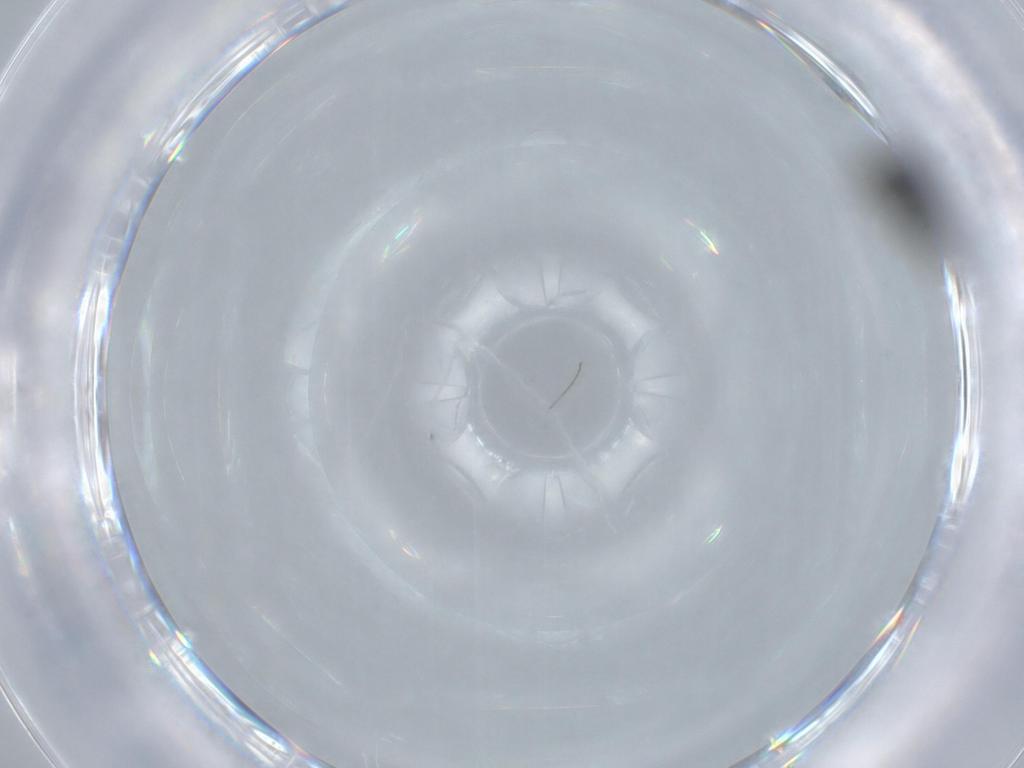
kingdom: Animalia
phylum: Arthropoda
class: Insecta
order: Diptera
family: Chironomidae
